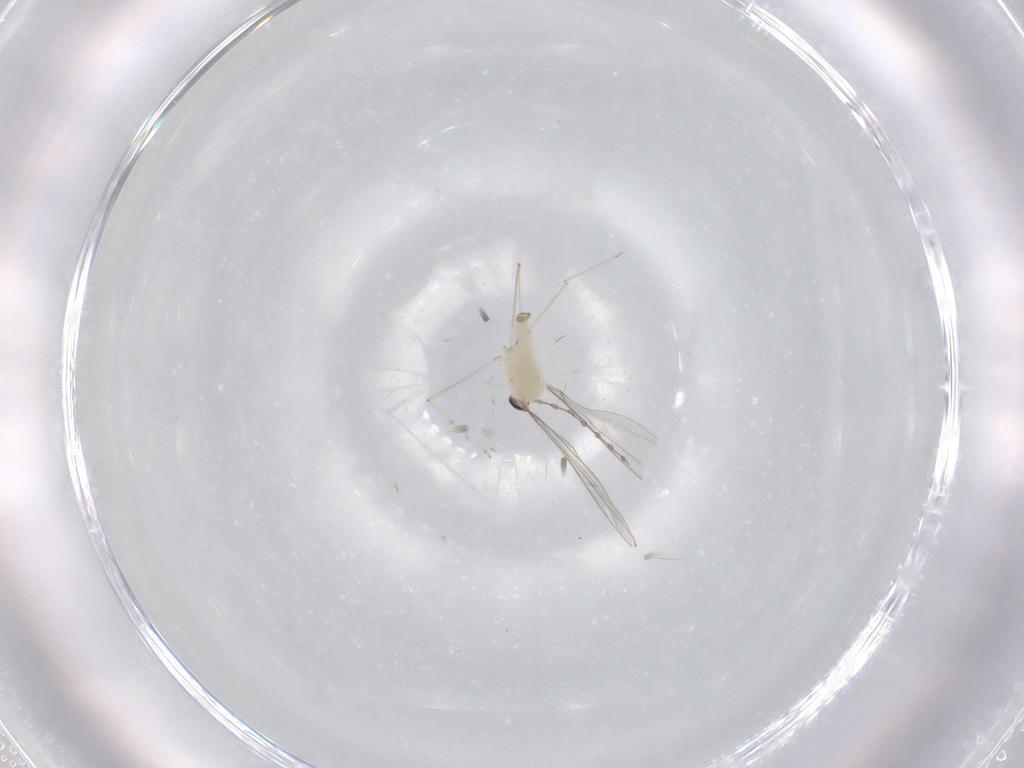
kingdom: Animalia
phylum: Arthropoda
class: Insecta
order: Diptera
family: Cecidomyiidae
